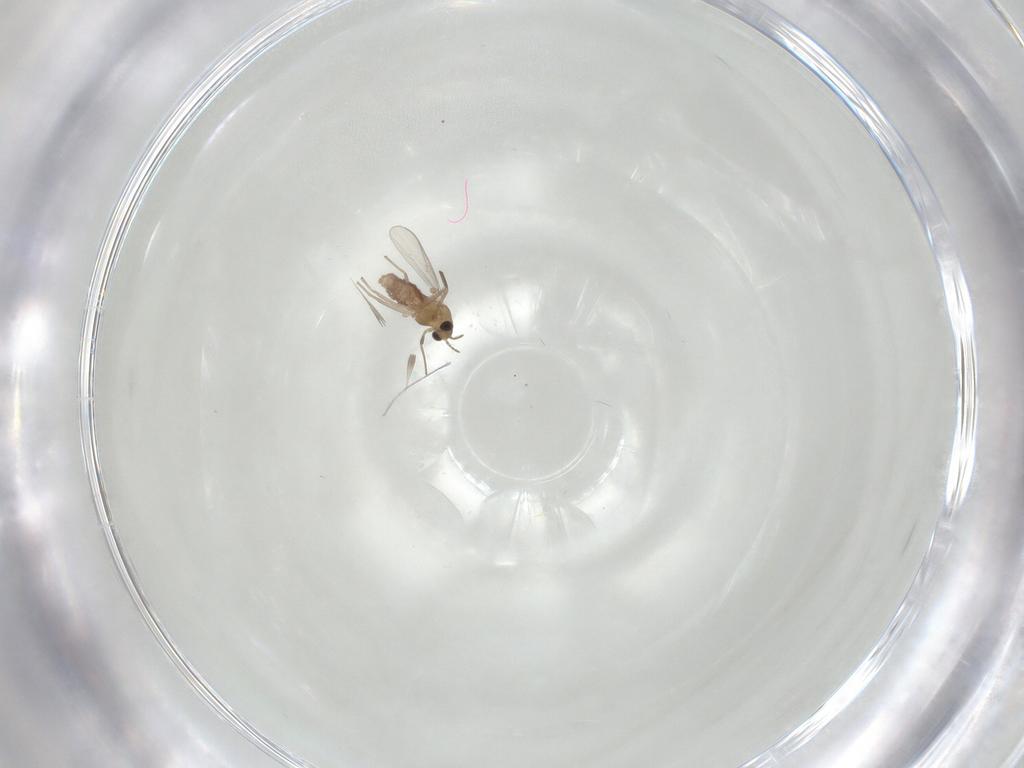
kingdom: Animalia
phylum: Arthropoda
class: Insecta
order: Diptera
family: Chironomidae
